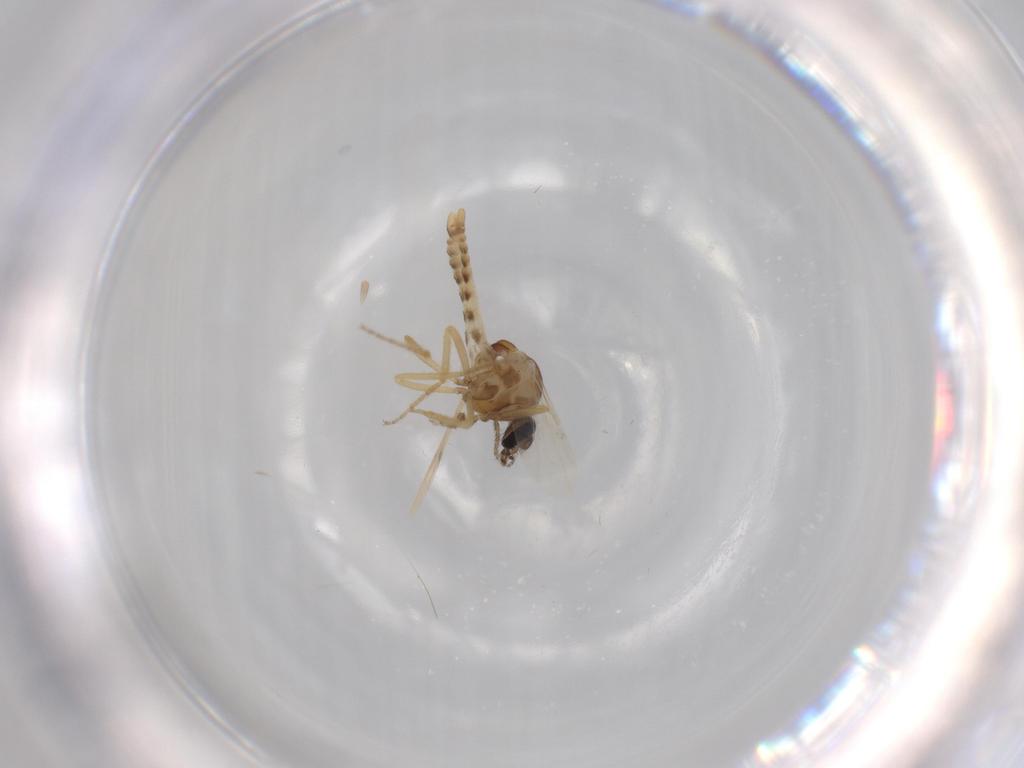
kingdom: Animalia
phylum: Arthropoda
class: Insecta
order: Diptera
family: Ceratopogonidae
